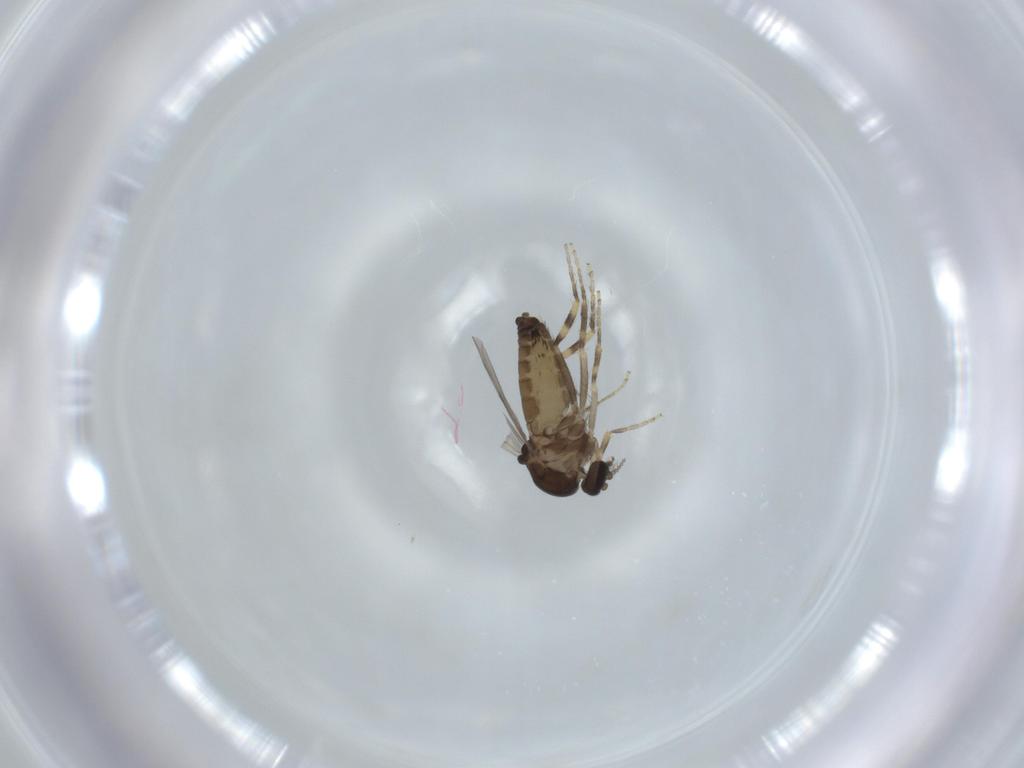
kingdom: Animalia
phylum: Arthropoda
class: Insecta
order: Diptera
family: Ceratopogonidae
